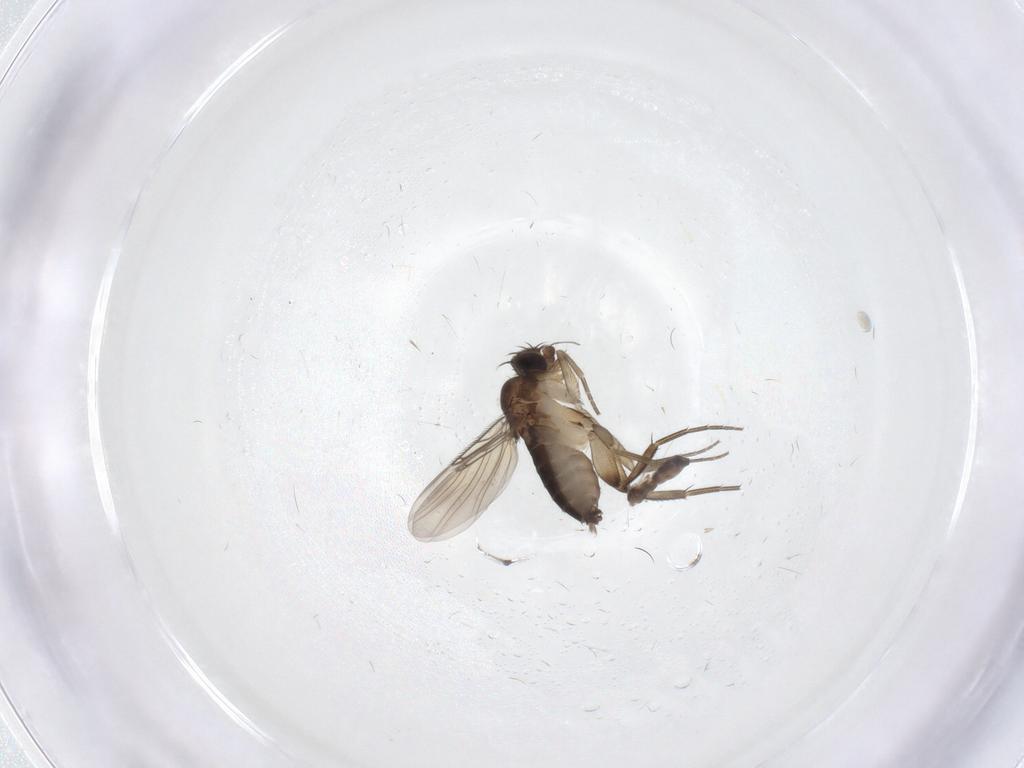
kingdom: Animalia
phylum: Arthropoda
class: Insecta
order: Diptera
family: Phoridae
